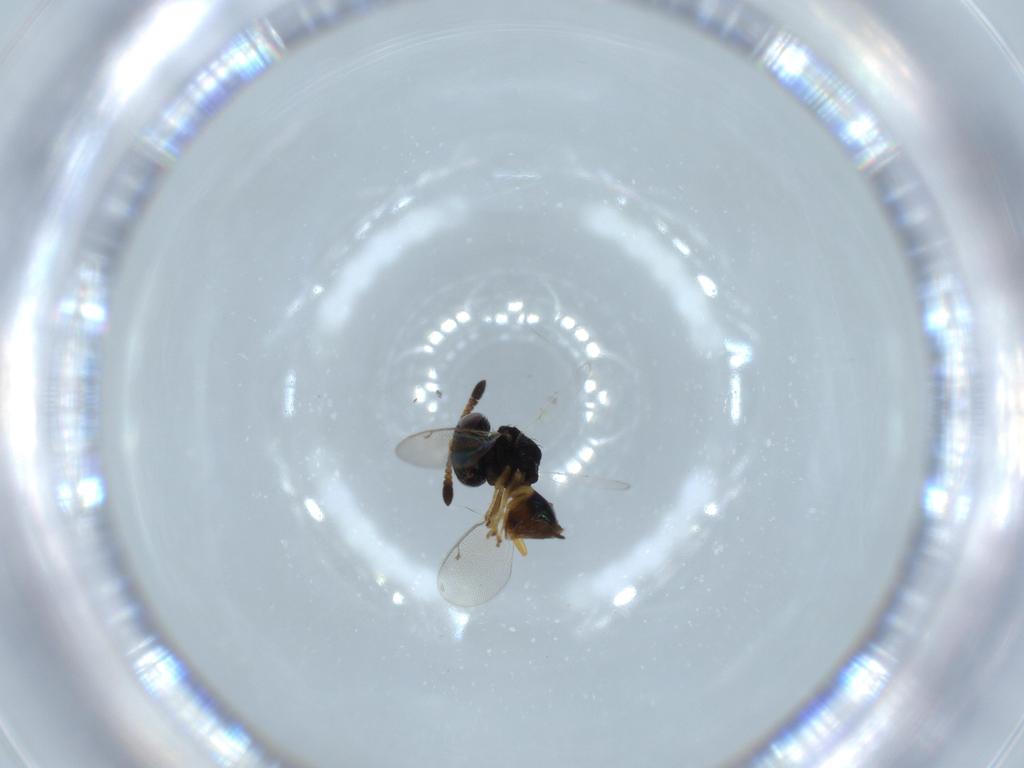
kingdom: Animalia
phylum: Arthropoda
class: Insecta
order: Hymenoptera
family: Pteromalidae
